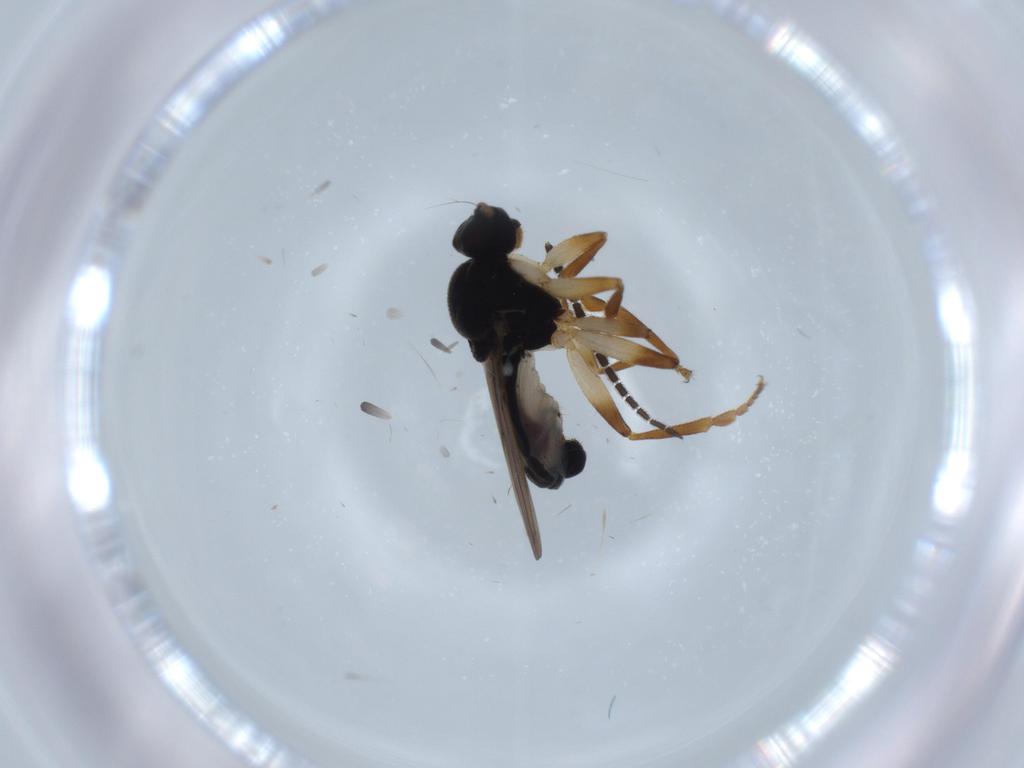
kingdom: Animalia
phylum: Arthropoda
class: Insecta
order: Diptera
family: Sphaeroceridae
